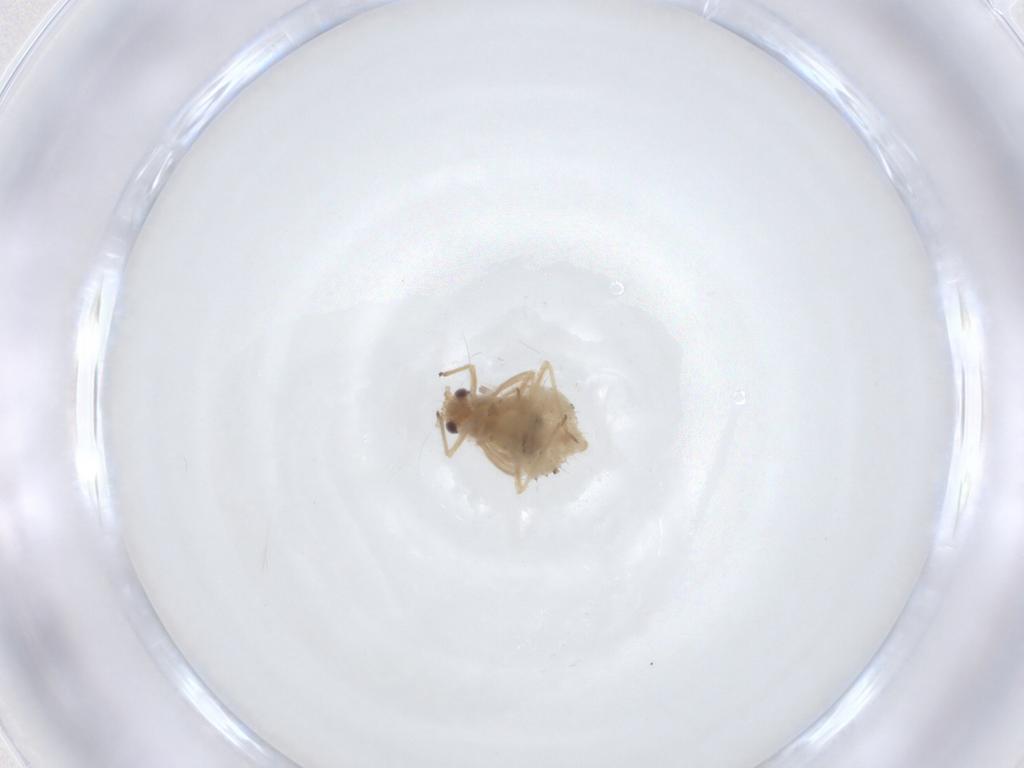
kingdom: Animalia
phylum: Arthropoda
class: Insecta
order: Hemiptera
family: Aphididae
